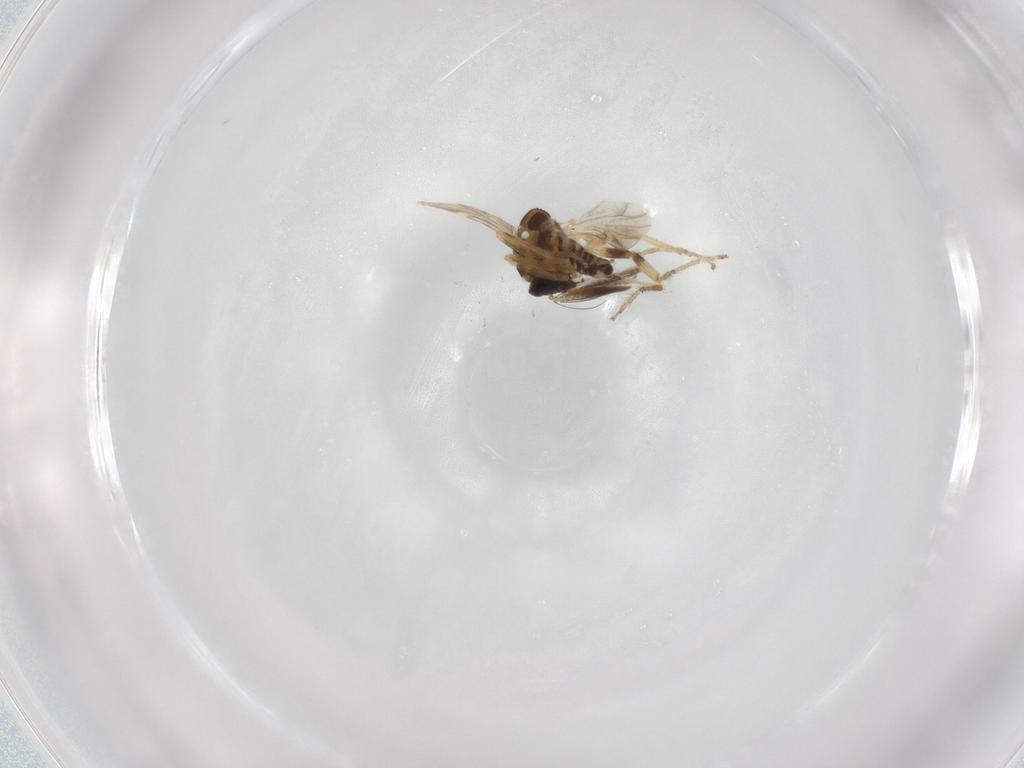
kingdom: Animalia
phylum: Arthropoda
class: Insecta
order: Diptera
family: Ceratopogonidae
